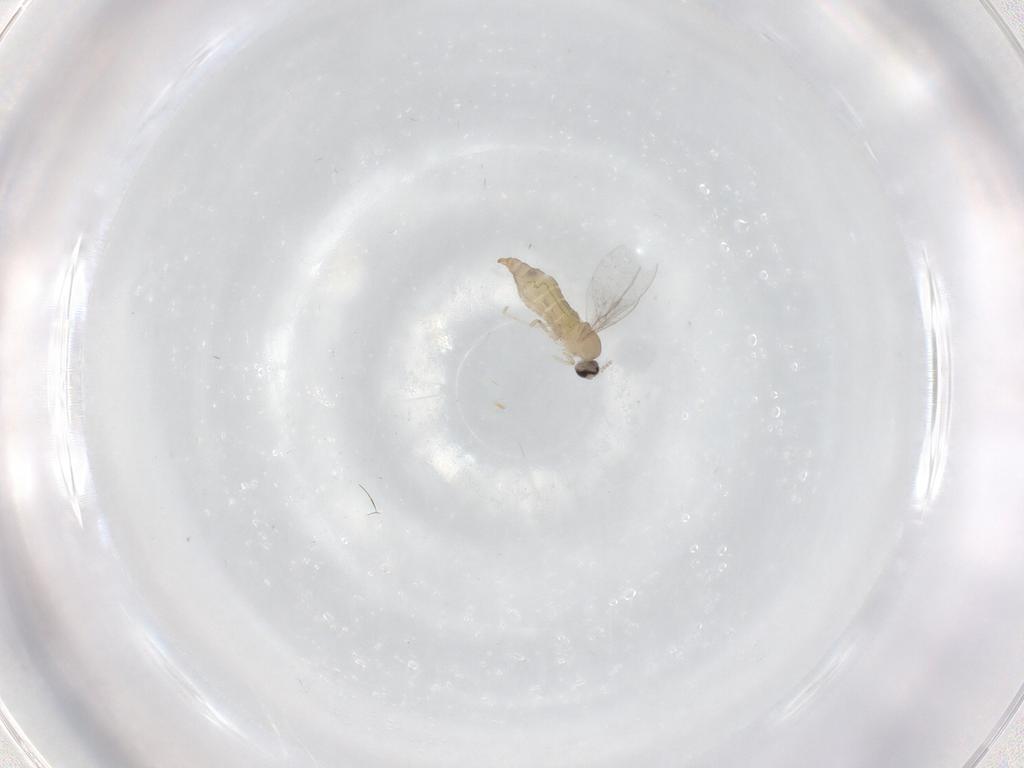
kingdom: Animalia
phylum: Arthropoda
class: Insecta
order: Diptera
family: Cecidomyiidae
